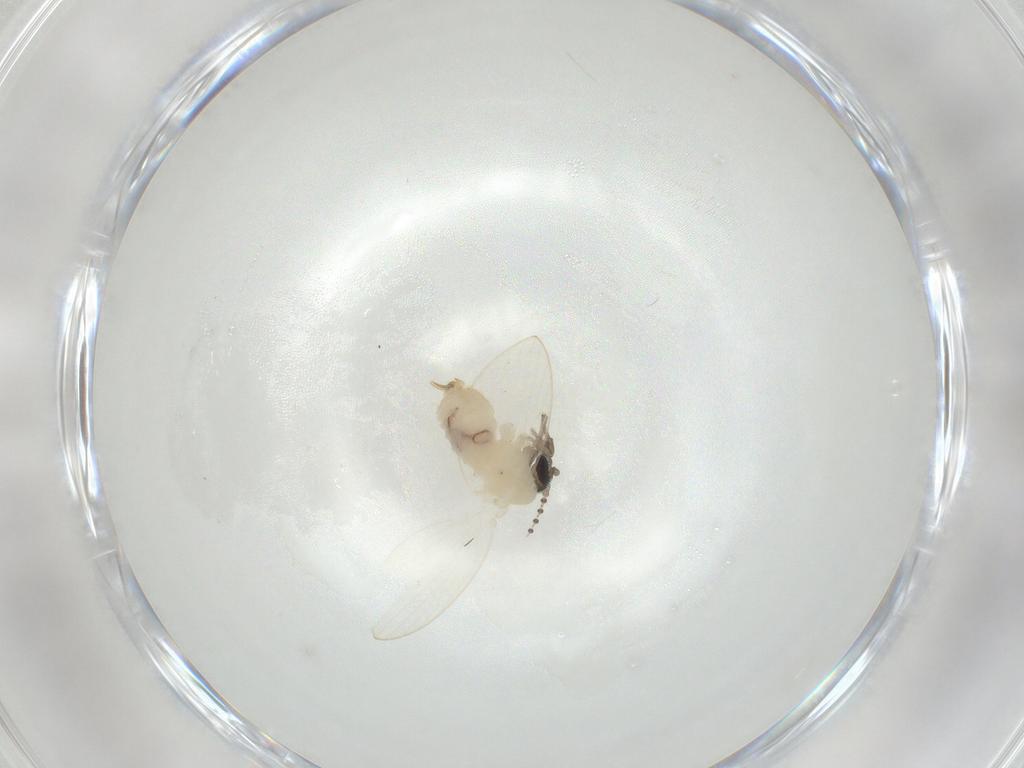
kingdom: Animalia
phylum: Arthropoda
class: Insecta
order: Diptera
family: Psychodidae
